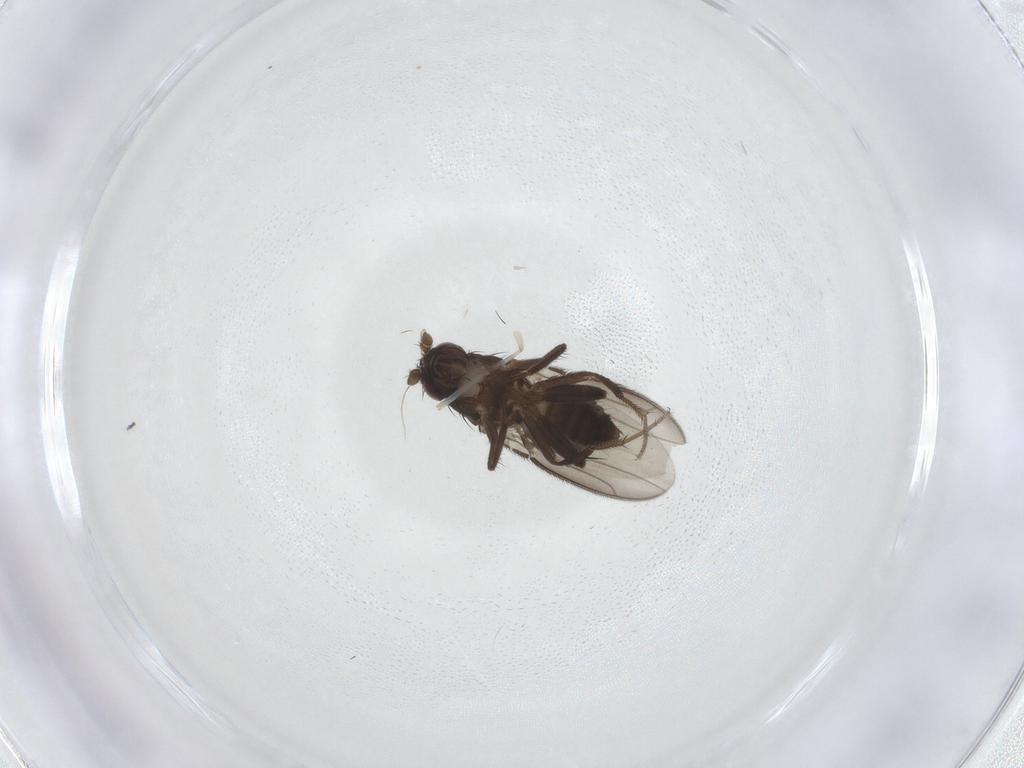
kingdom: Animalia
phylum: Arthropoda
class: Insecta
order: Diptera
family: Sphaeroceridae
